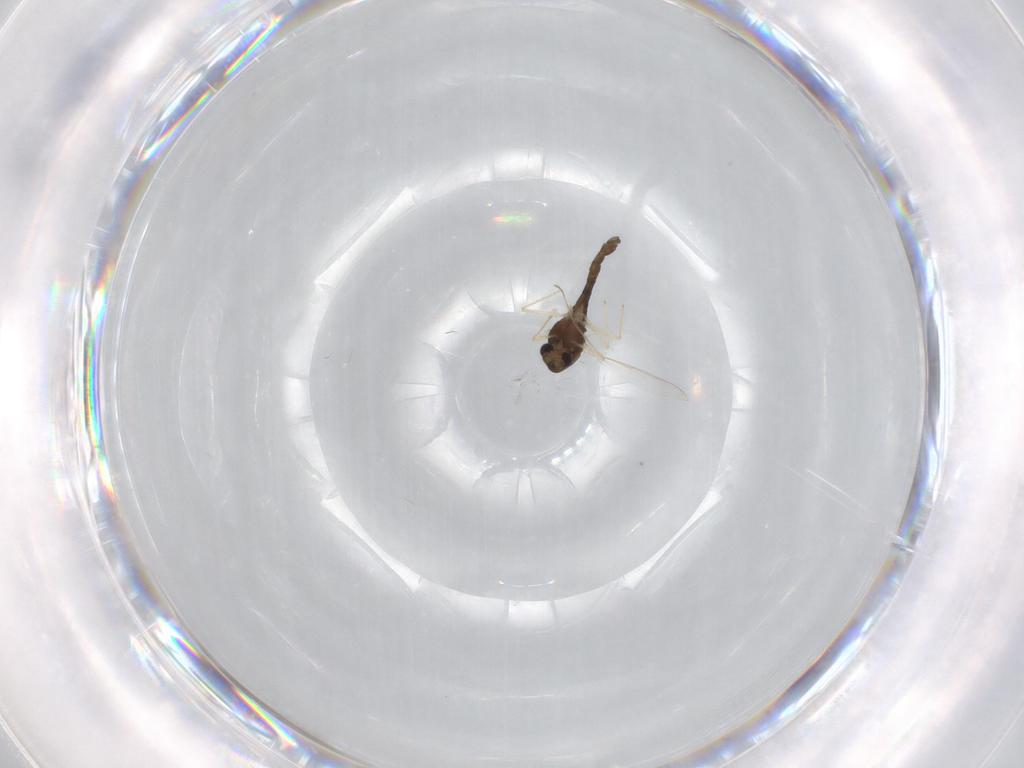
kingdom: Animalia
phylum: Arthropoda
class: Insecta
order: Diptera
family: Chironomidae
